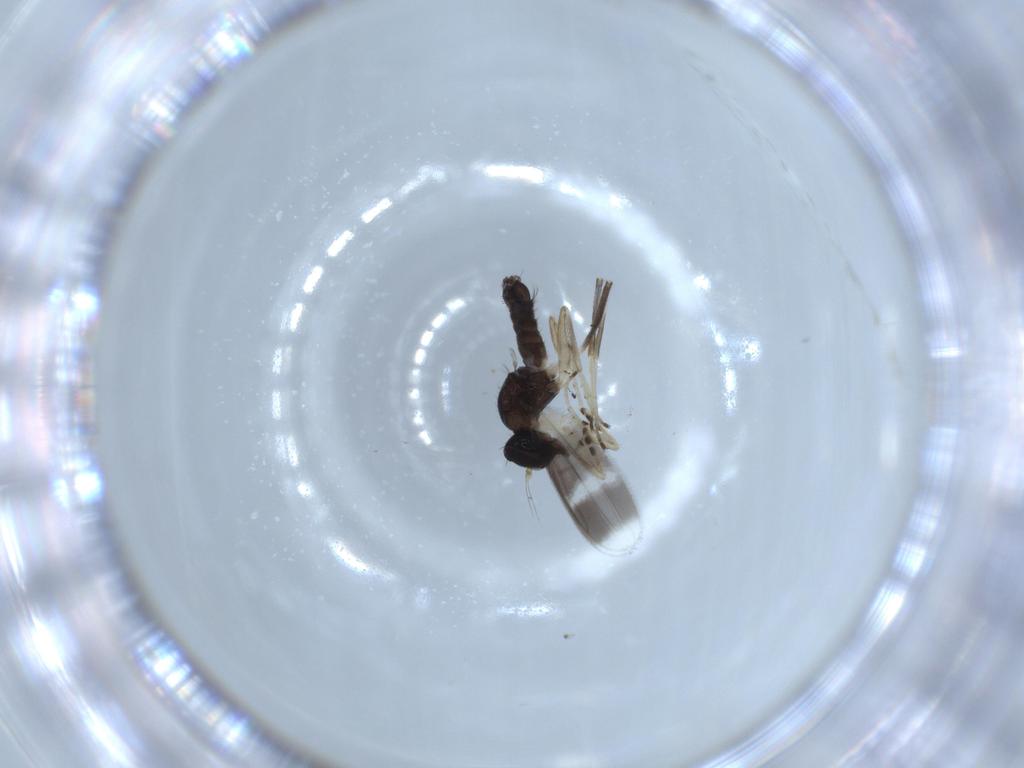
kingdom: Animalia
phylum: Arthropoda
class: Insecta
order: Diptera
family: Hybotidae
